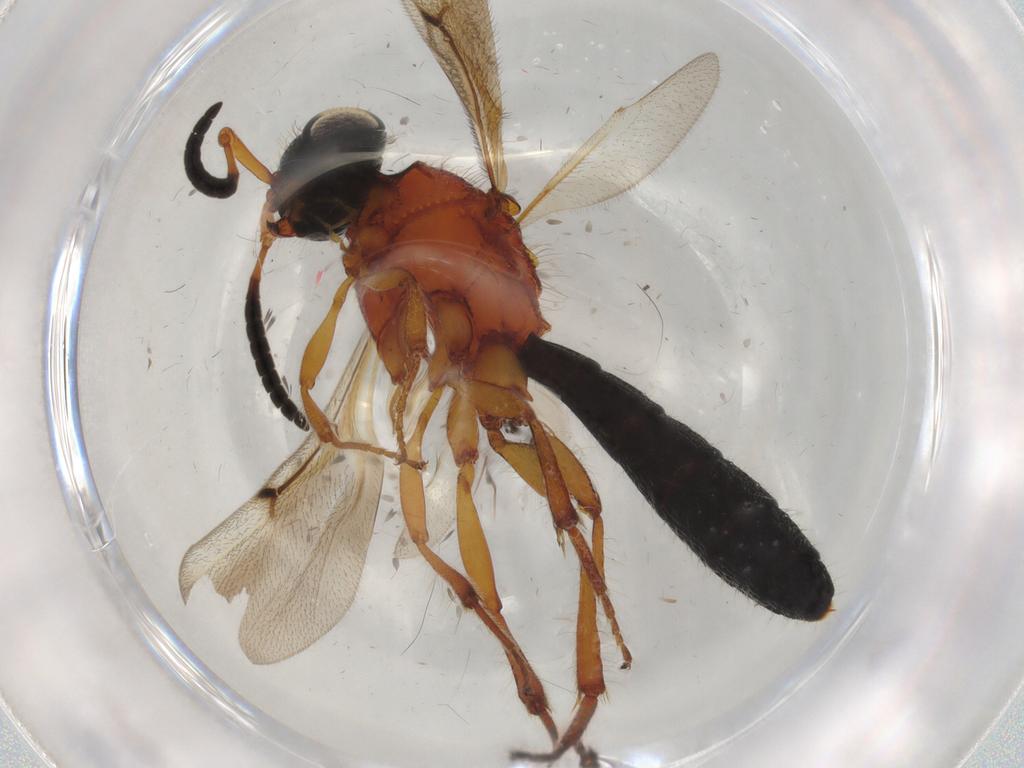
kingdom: Animalia
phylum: Arthropoda
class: Insecta
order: Hymenoptera
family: Scelionidae
